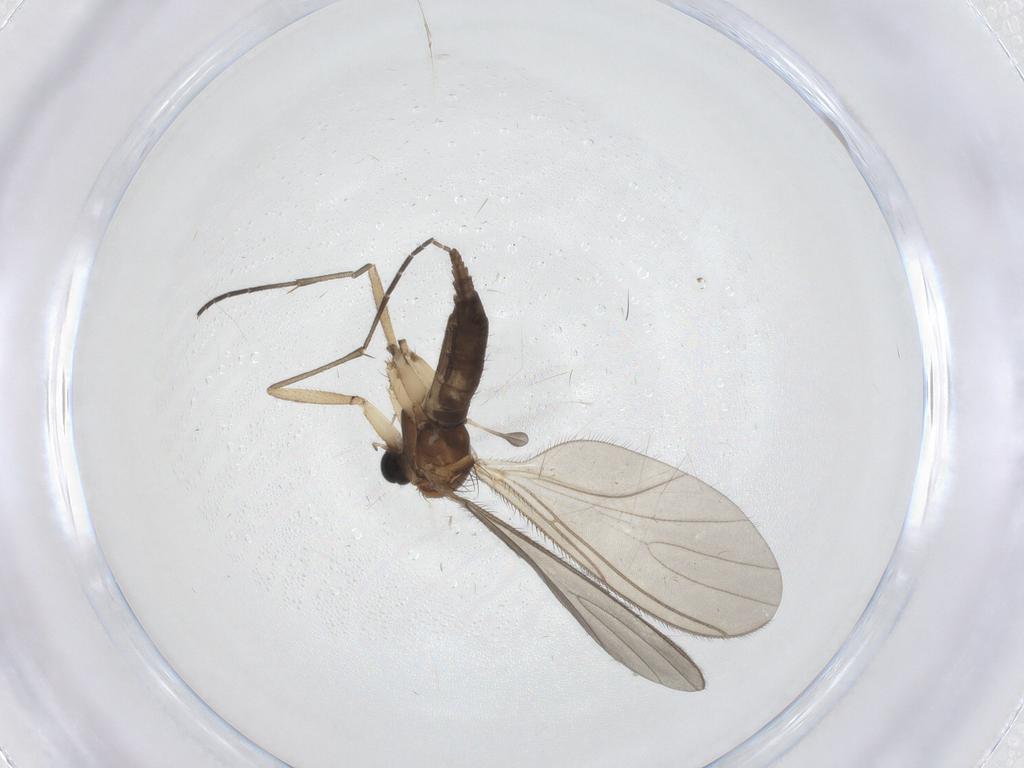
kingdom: Animalia
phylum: Arthropoda
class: Insecta
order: Diptera
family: Sciaridae
